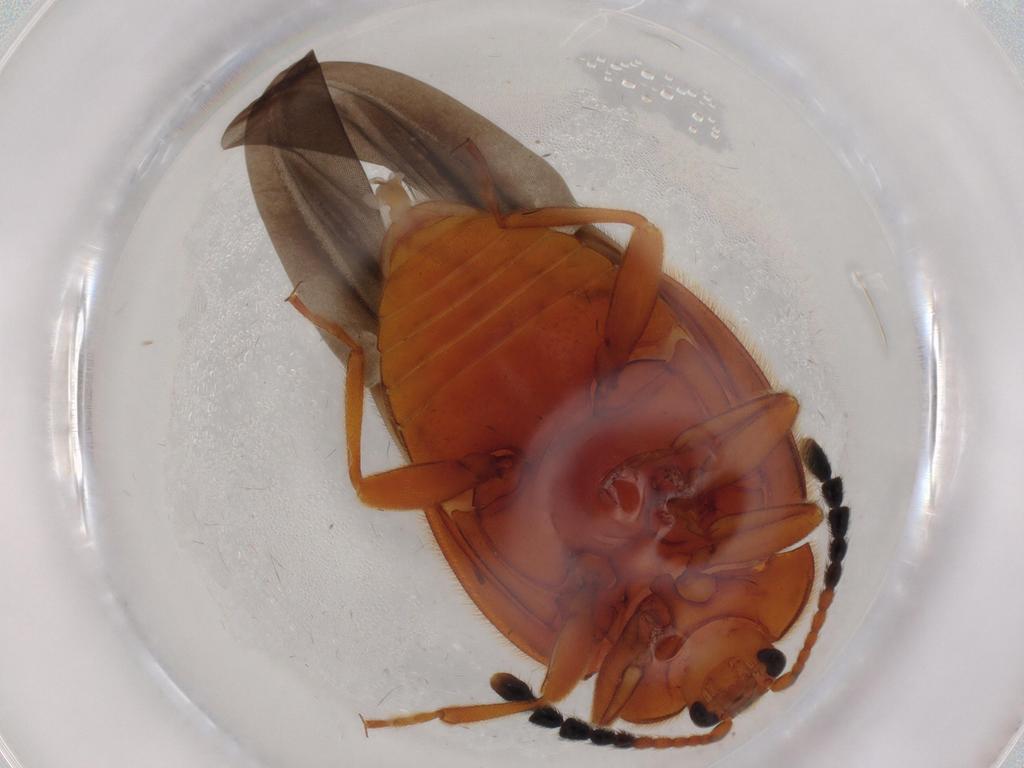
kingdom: Animalia
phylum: Arthropoda
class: Insecta
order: Coleoptera
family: Endomychidae
